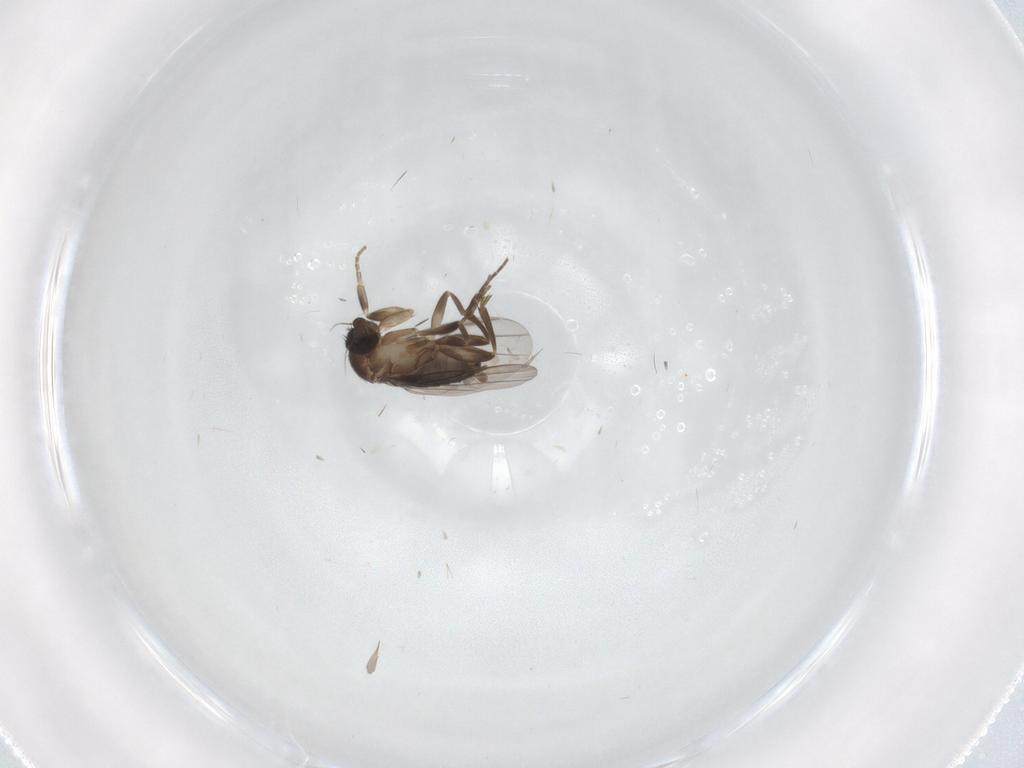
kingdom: Animalia
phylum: Arthropoda
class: Insecta
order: Diptera
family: Phoridae
